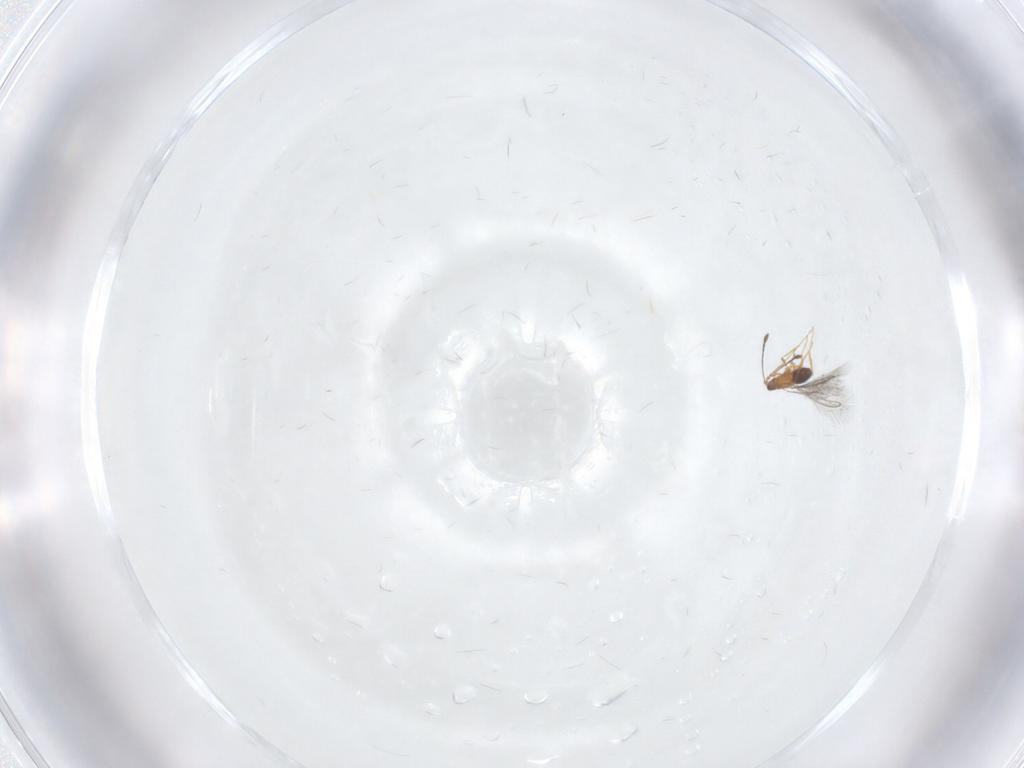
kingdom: Animalia
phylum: Arthropoda
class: Insecta
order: Hymenoptera
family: Mymaridae
